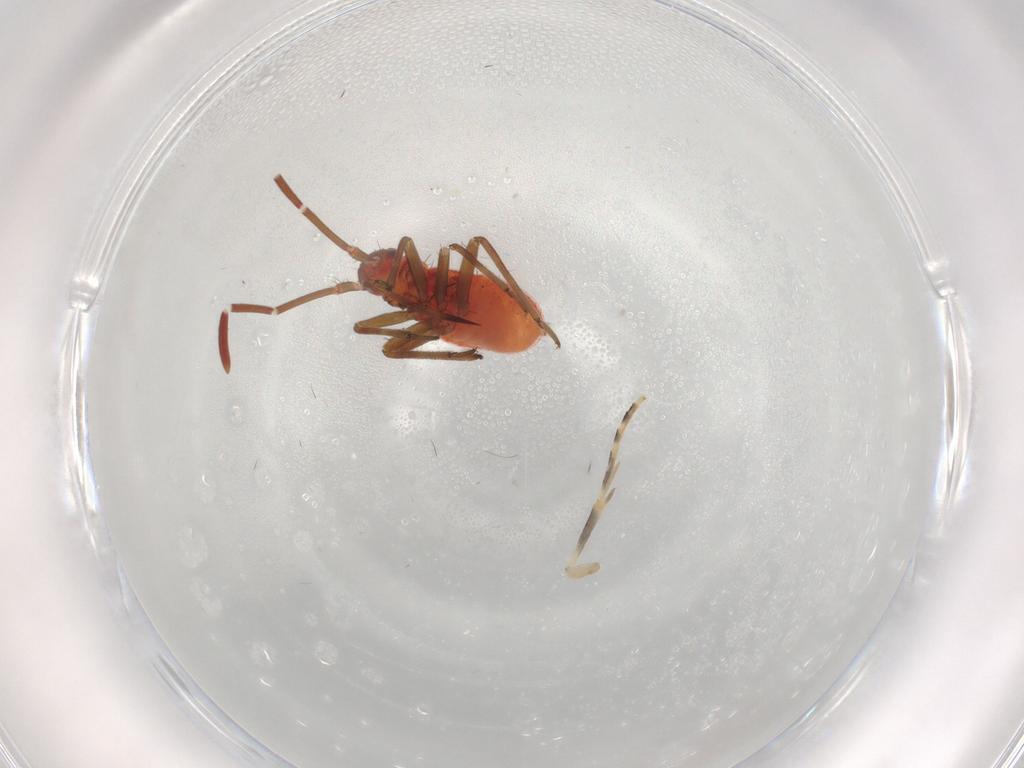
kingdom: Animalia
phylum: Arthropoda
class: Insecta
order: Hemiptera
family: Miridae
